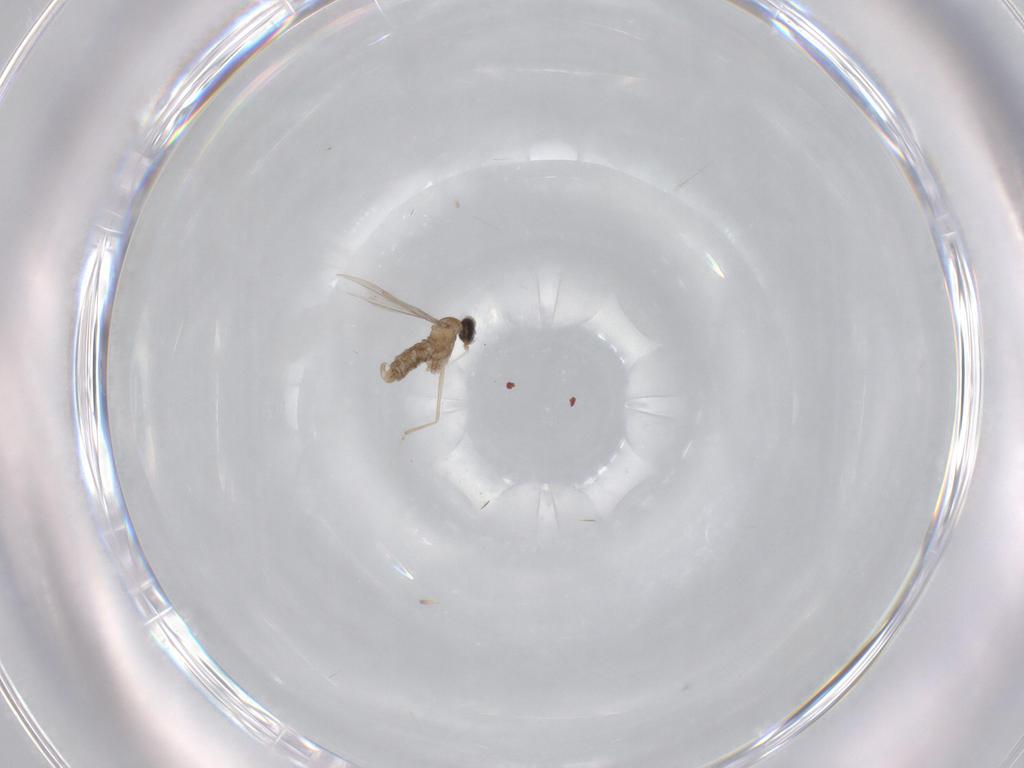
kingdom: Animalia
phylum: Arthropoda
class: Insecta
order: Diptera
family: Cecidomyiidae
